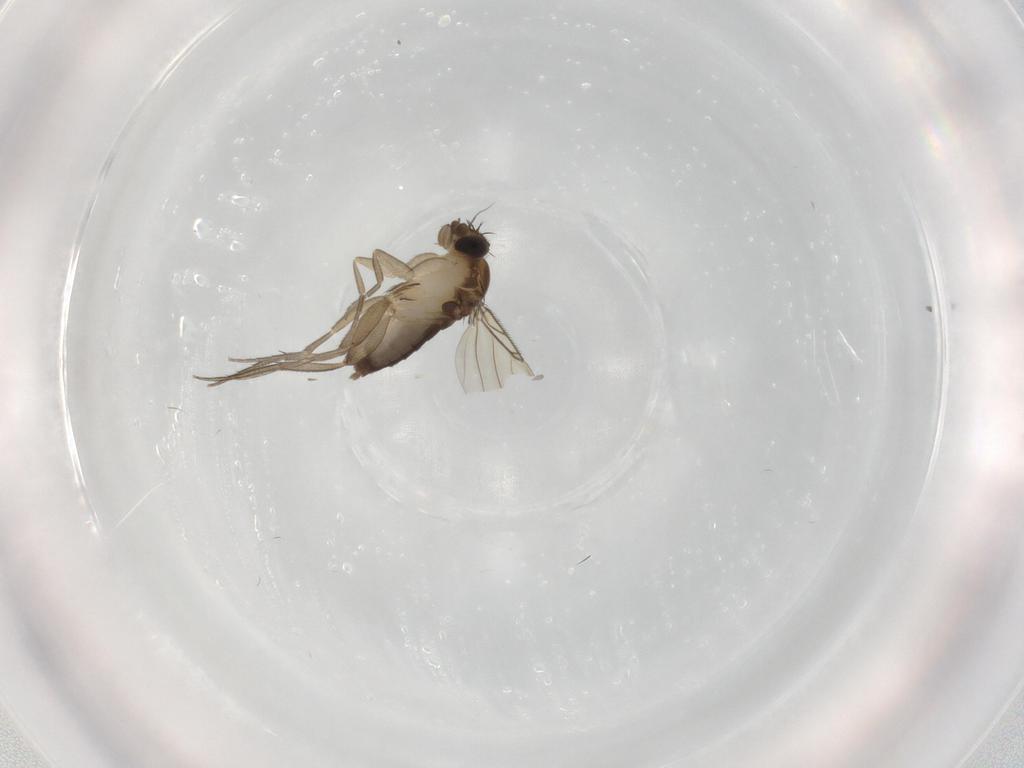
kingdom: Animalia
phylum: Arthropoda
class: Insecta
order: Diptera
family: Phoridae
